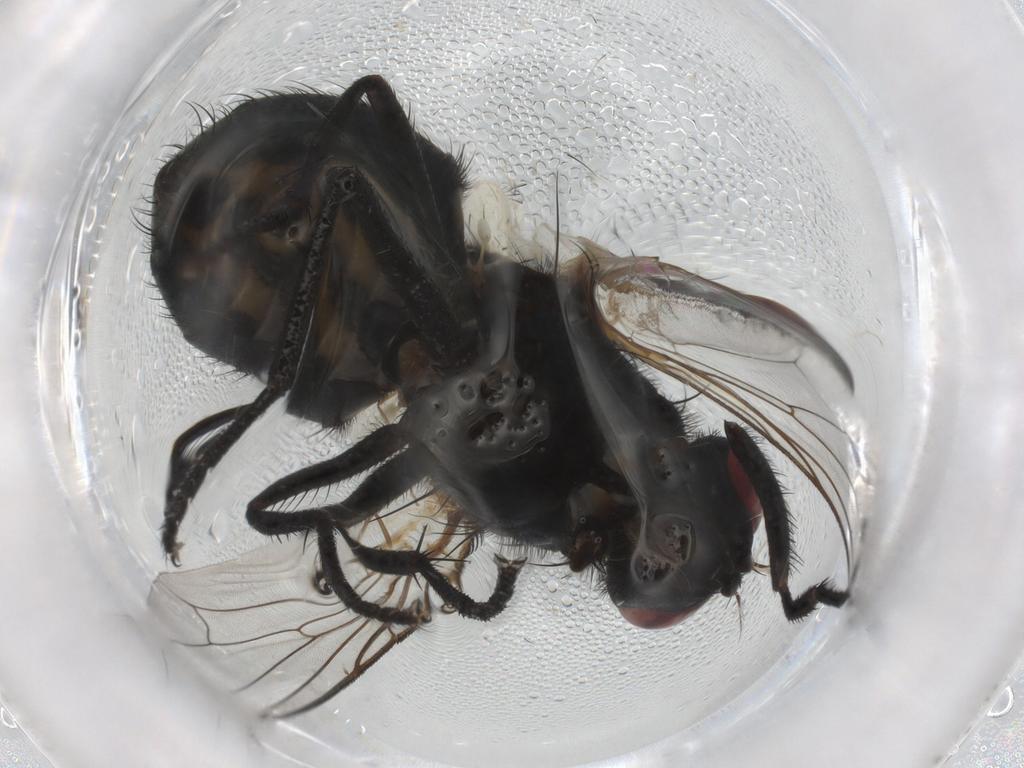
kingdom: Animalia
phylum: Arthropoda
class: Insecta
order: Diptera
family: Muscidae
